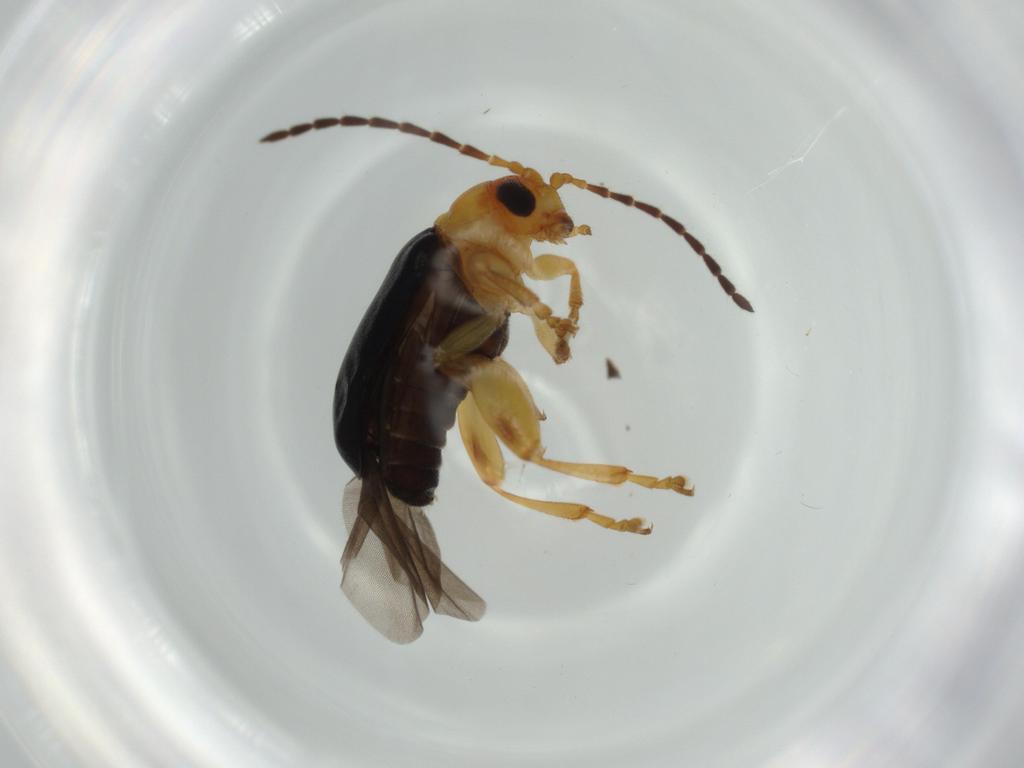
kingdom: Animalia
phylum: Arthropoda
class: Insecta
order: Coleoptera
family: Chrysomelidae
